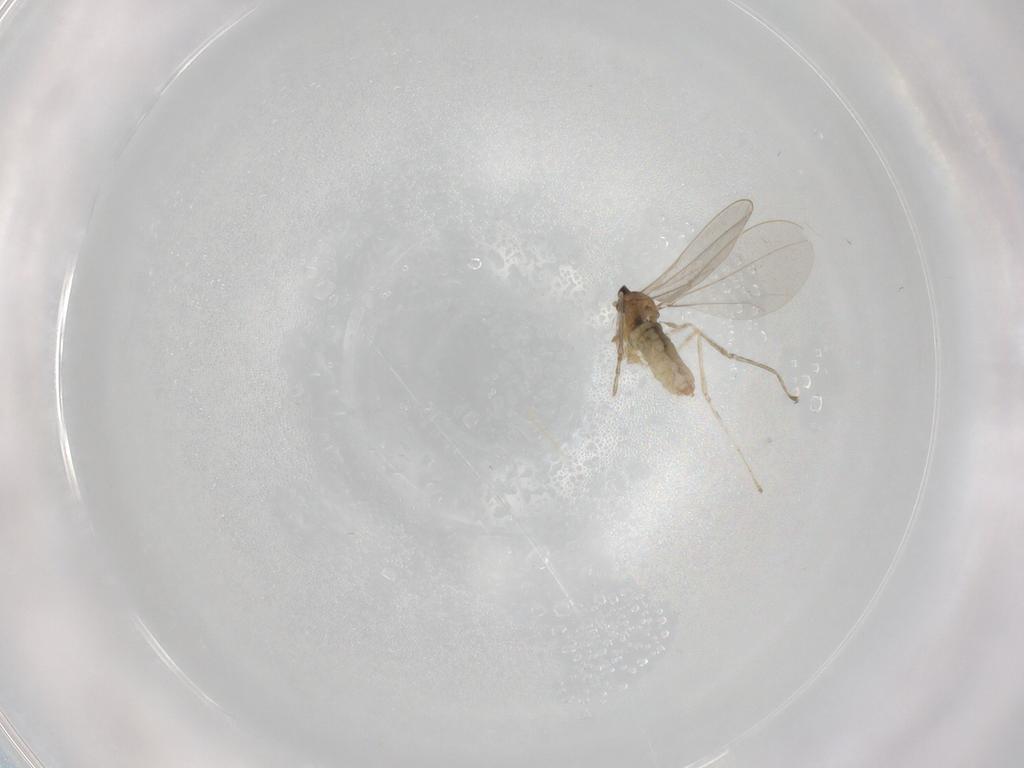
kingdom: Animalia
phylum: Arthropoda
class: Insecta
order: Diptera
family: Cecidomyiidae
